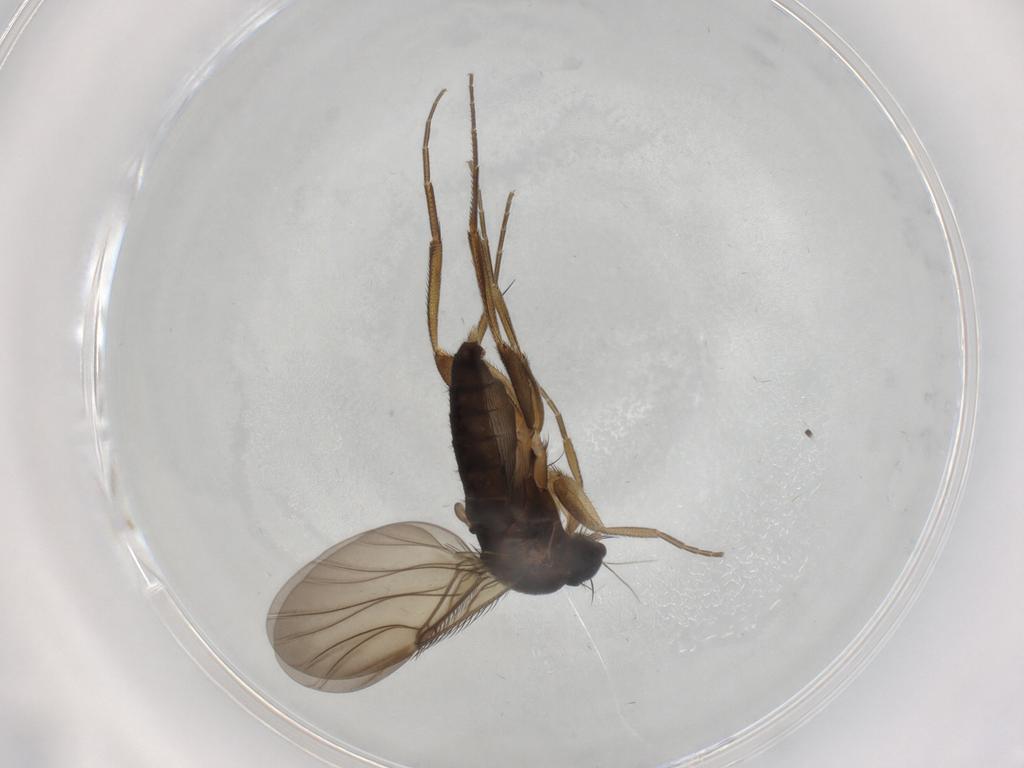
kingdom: Animalia
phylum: Arthropoda
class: Insecta
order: Diptera
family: Phoridae
